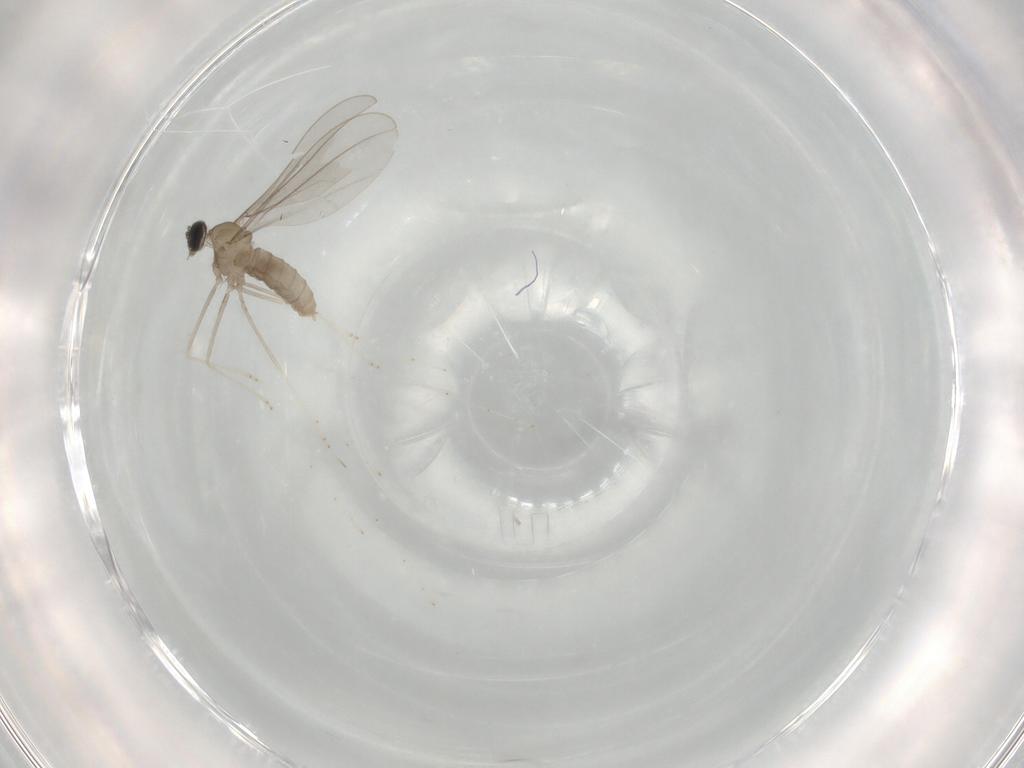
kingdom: Animalia
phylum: Arthropoda
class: Insecta
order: Diptera
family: Cecidomyiidae
